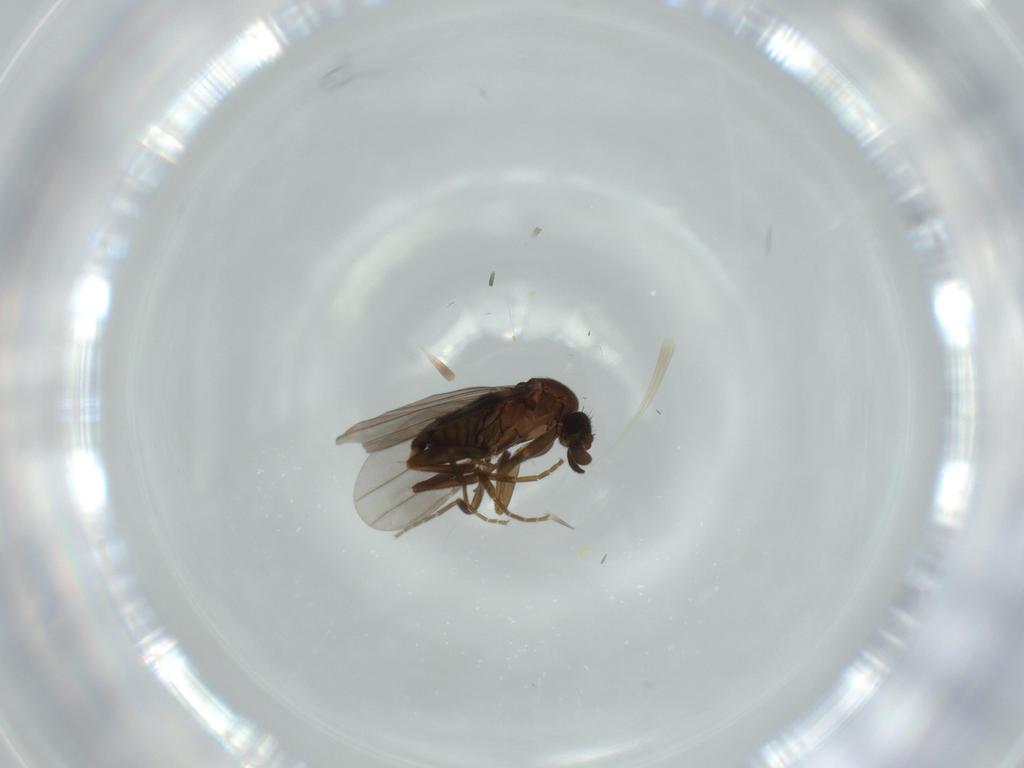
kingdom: Animalia
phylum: Arthropoda
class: Insecta
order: Diptera
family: Phoridae
